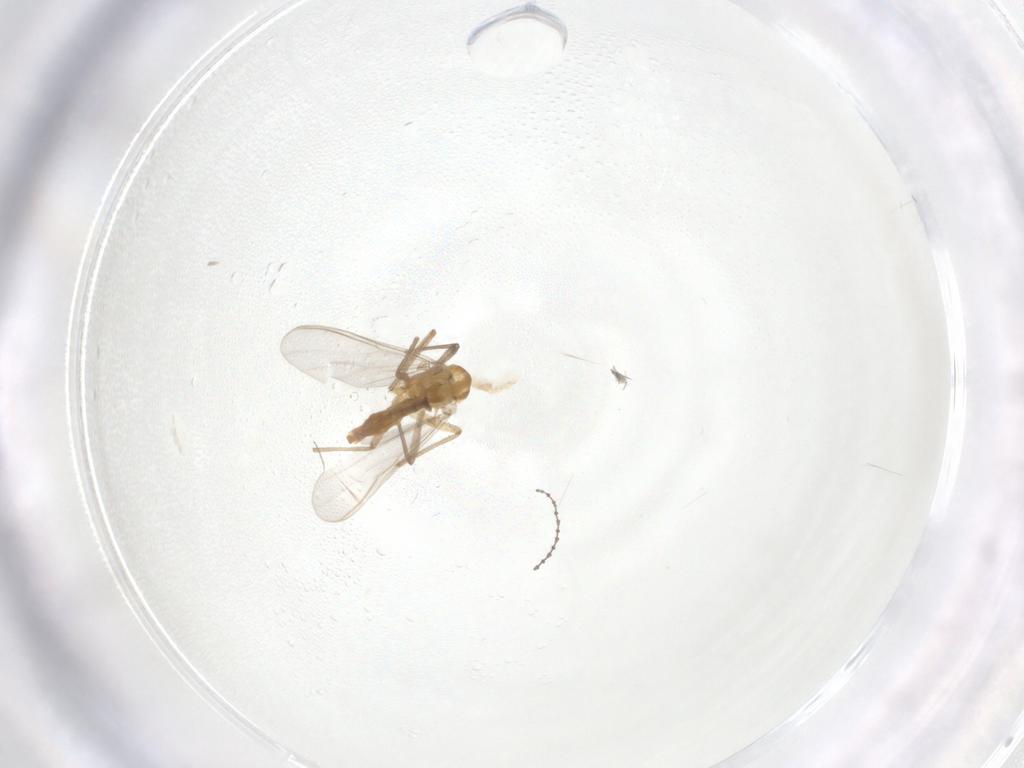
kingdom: Animalia
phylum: Arthropoda
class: Insecta
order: Diptera
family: Chironomidae
